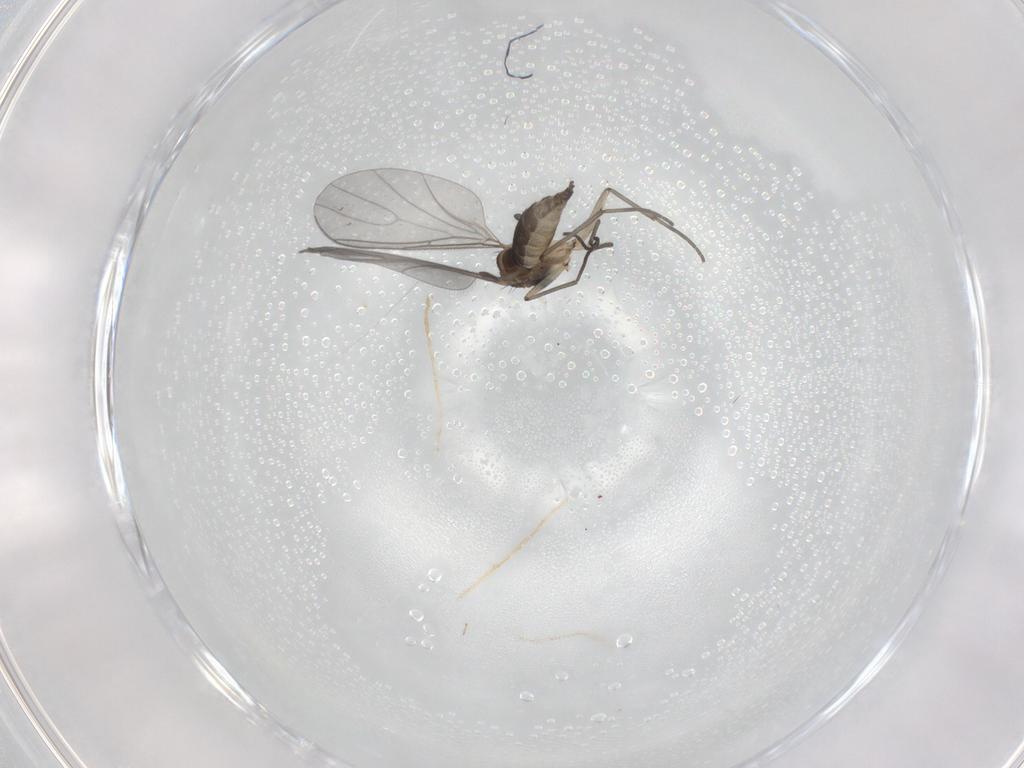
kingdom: Animalia
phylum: Arthropoda
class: Insecta
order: Diptera
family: Sciaridae
